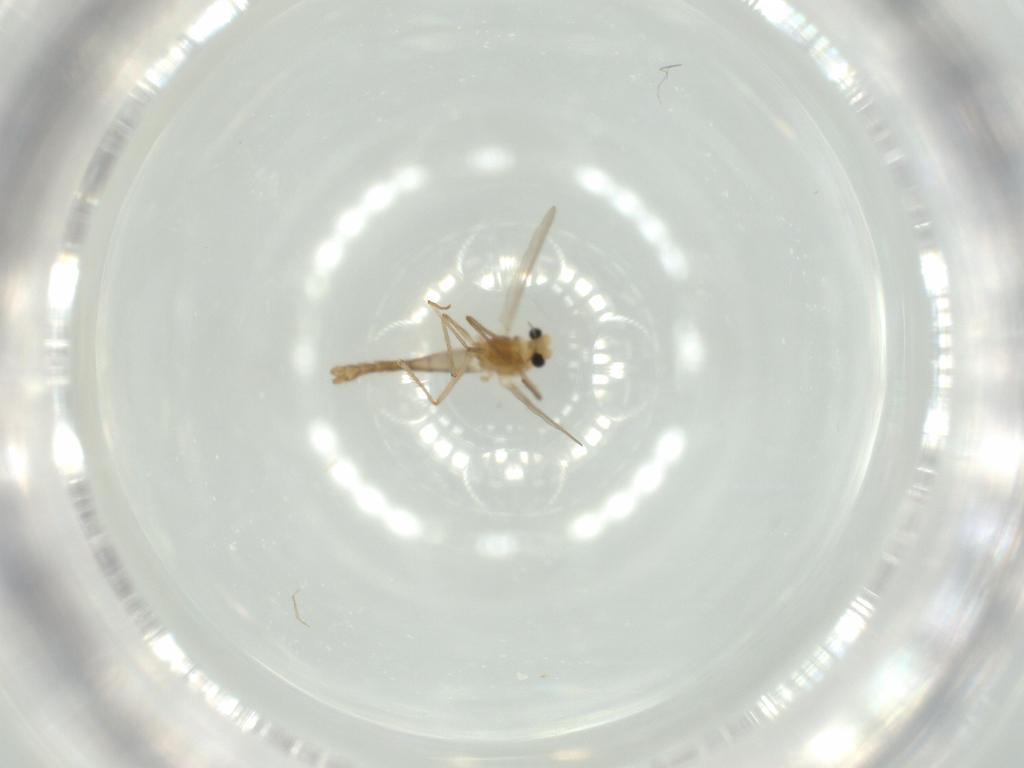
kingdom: Animalia
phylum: Arthropoda
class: Insecta
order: Diptera
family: Chironomidae
